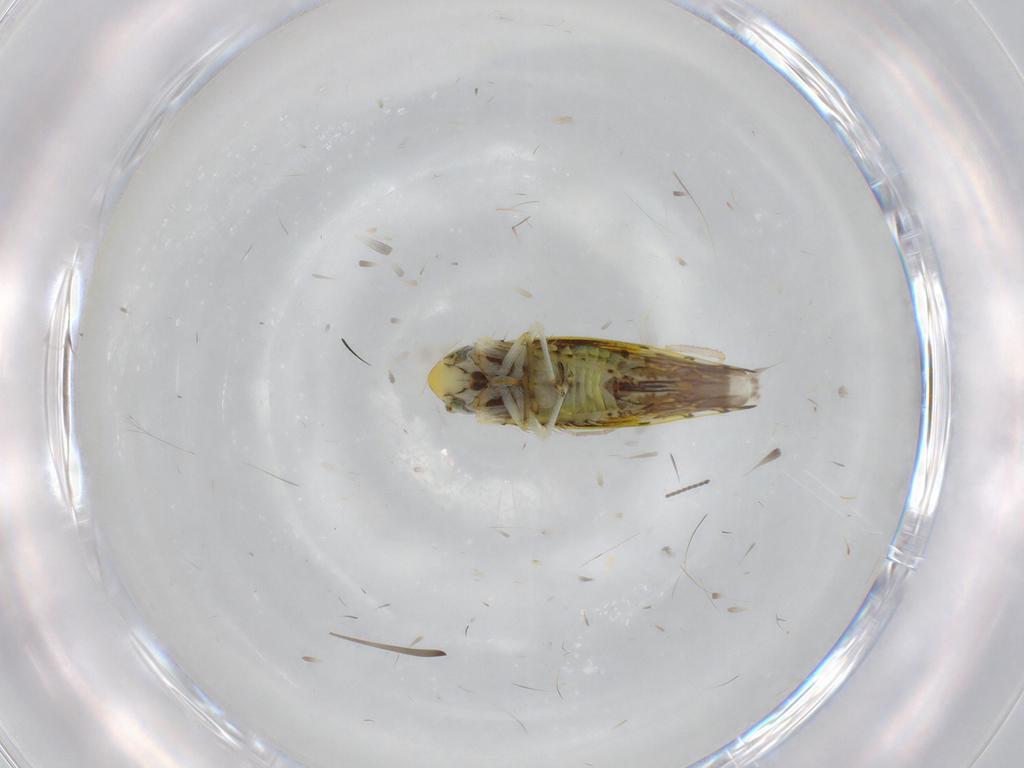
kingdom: Animalia
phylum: Arthropoda
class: Insecta
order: Hemiptera
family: Cicadellidae
